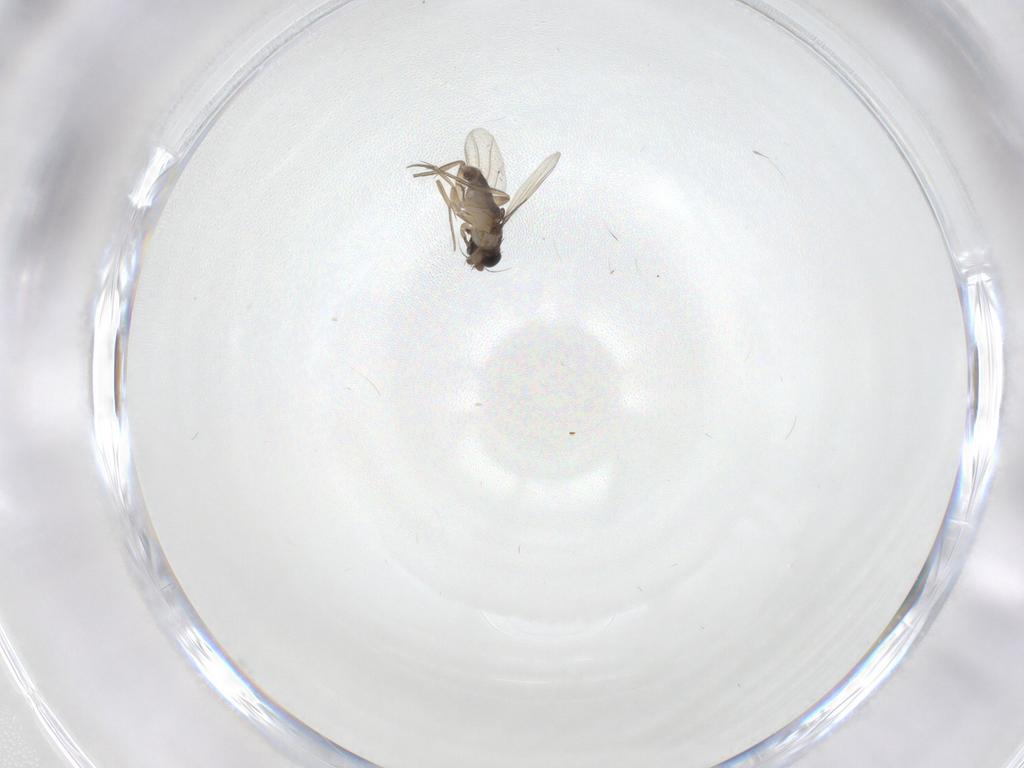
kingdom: Animalia
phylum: Arthropoda
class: Insecta
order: Diptera
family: Phoridae
